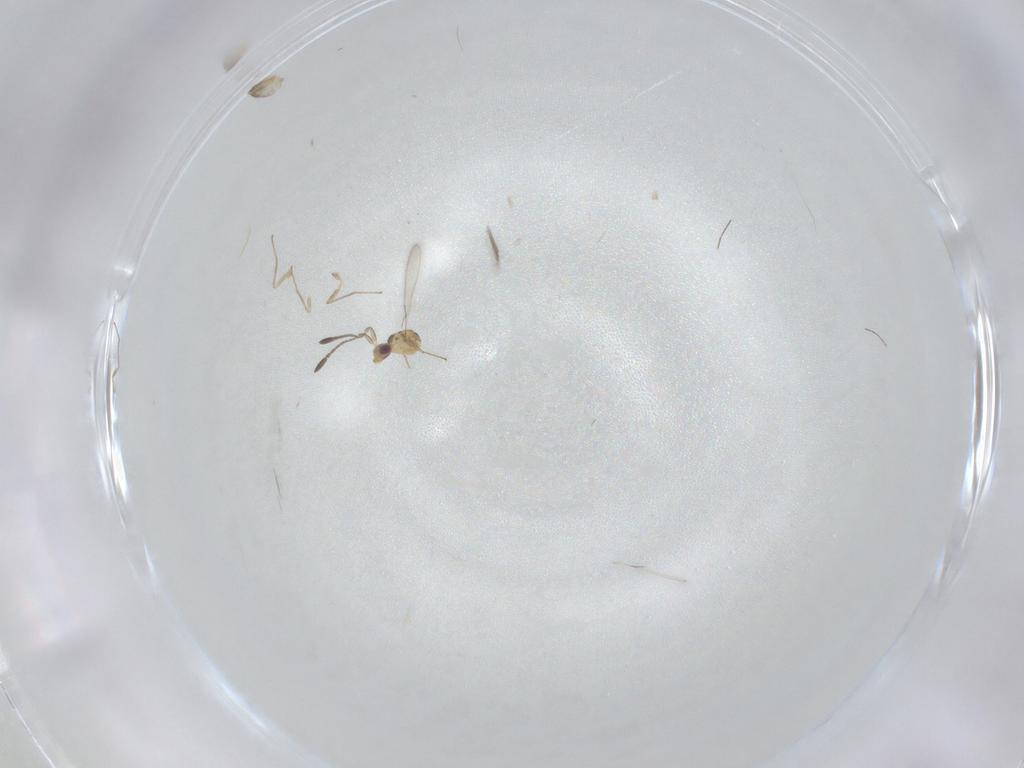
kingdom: Animalia
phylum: Arthropoda
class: Insecta
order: Hymenoptera
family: Mymaridae
